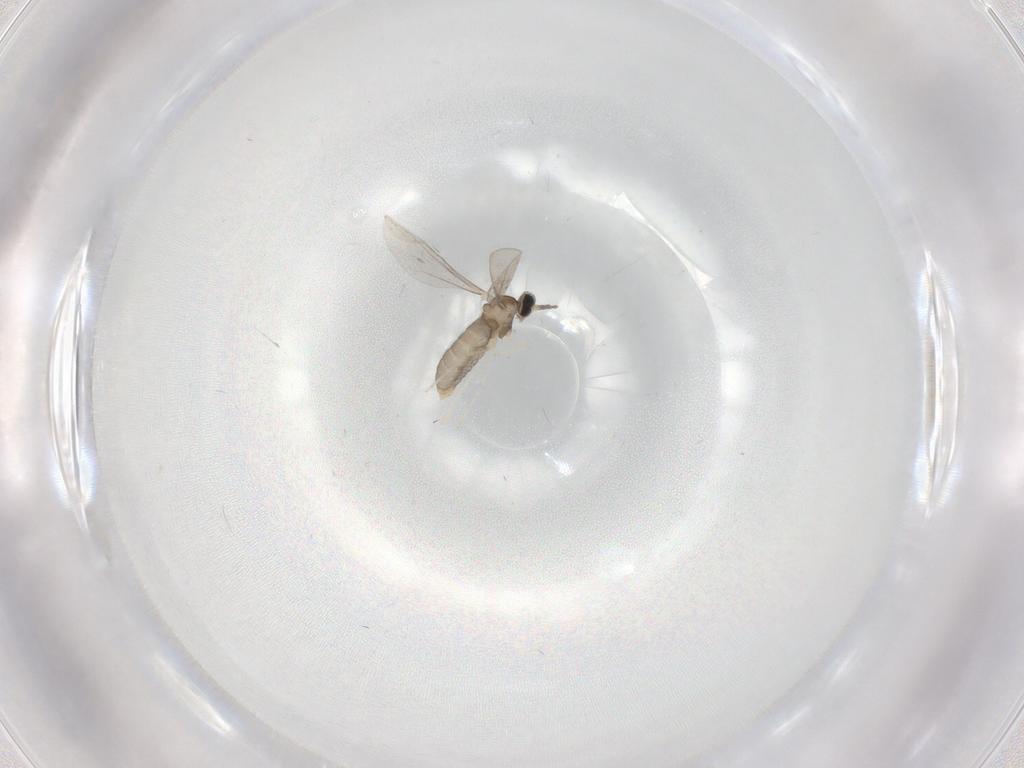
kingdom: Animalia
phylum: Arthropoda
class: Insecta
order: Diptera
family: Cecidomyiidae
